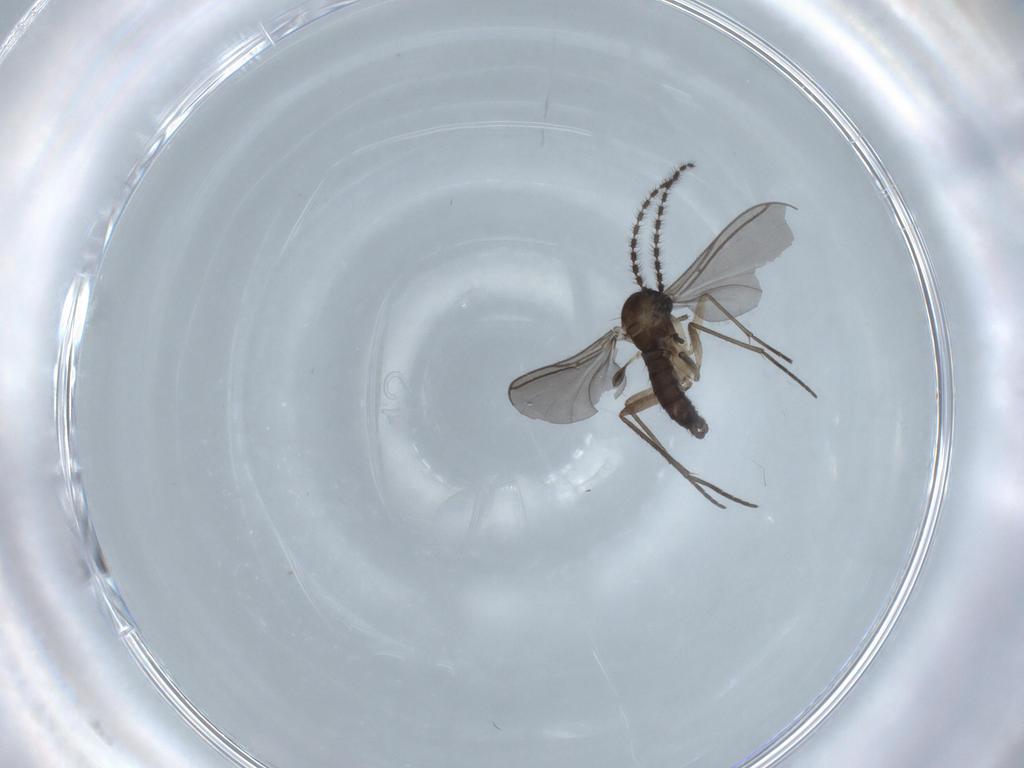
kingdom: Animalia
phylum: Arthropoda
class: Insecta
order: Diptera
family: Sciaridae
